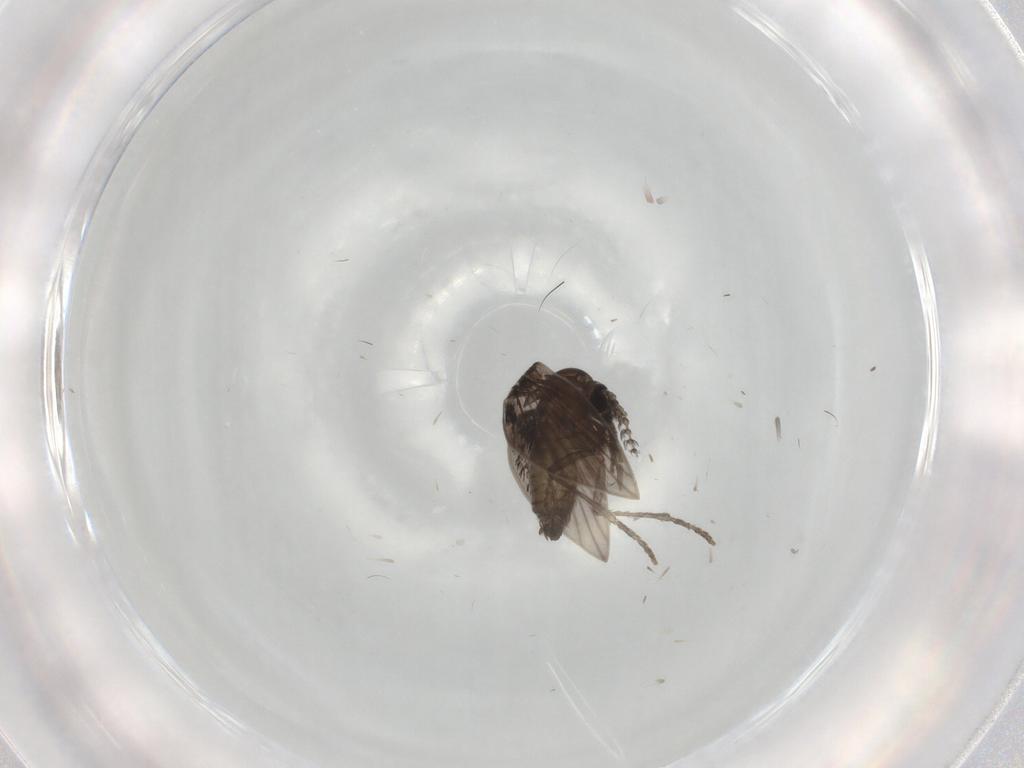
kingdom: Animalia
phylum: Arthropoda
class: Insecta
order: Diptera
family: Psychodidae
